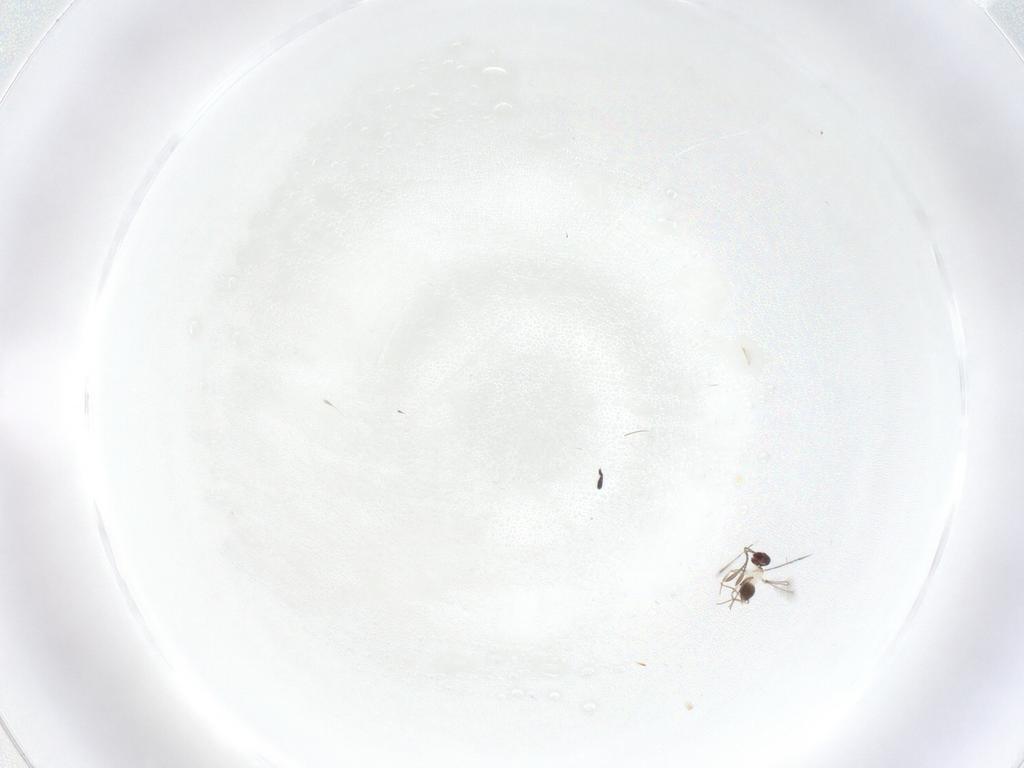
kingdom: Animalia
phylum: Arthropoda
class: Insecta
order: Hymenoptera
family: Mymaridae
